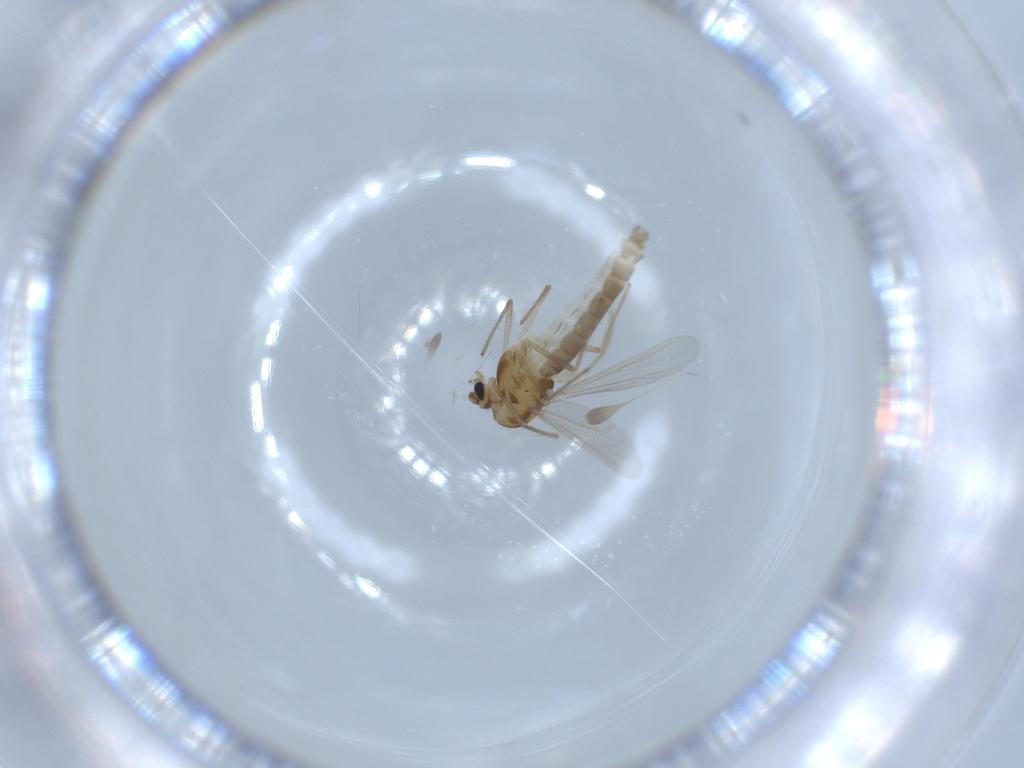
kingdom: Animalia
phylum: Arthropoda
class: Insecta
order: Diptera
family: Chironomidae
